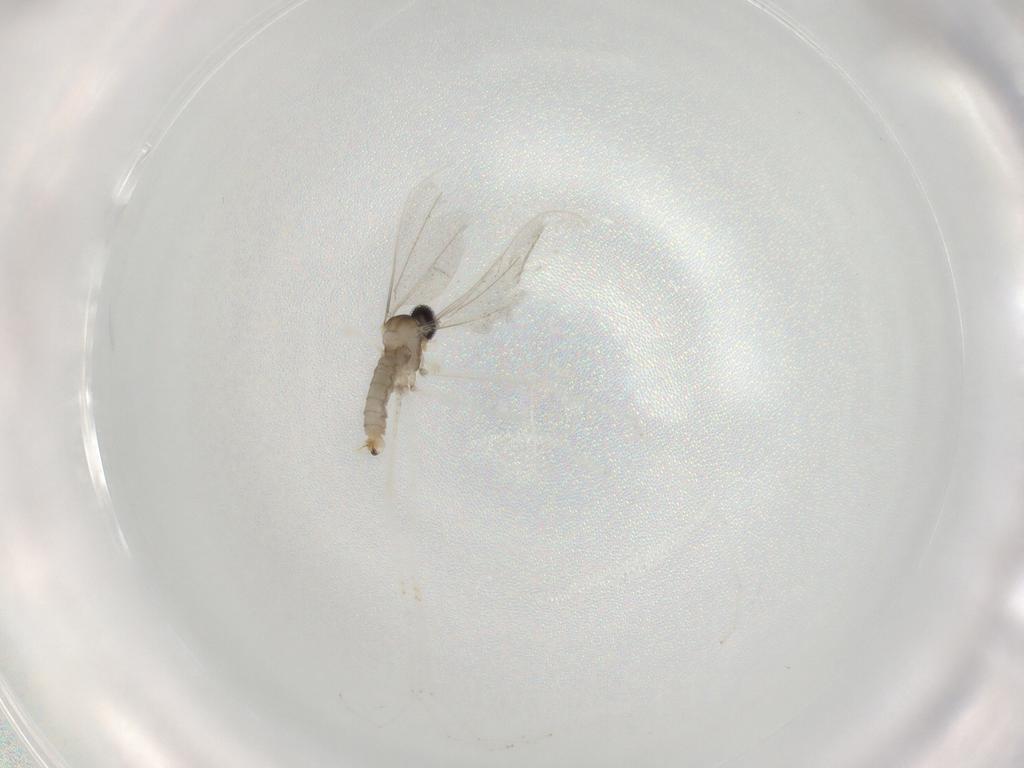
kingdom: Animalia
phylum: Arthropoda
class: Insecta
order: Diptera
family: Cecidomyiidae
